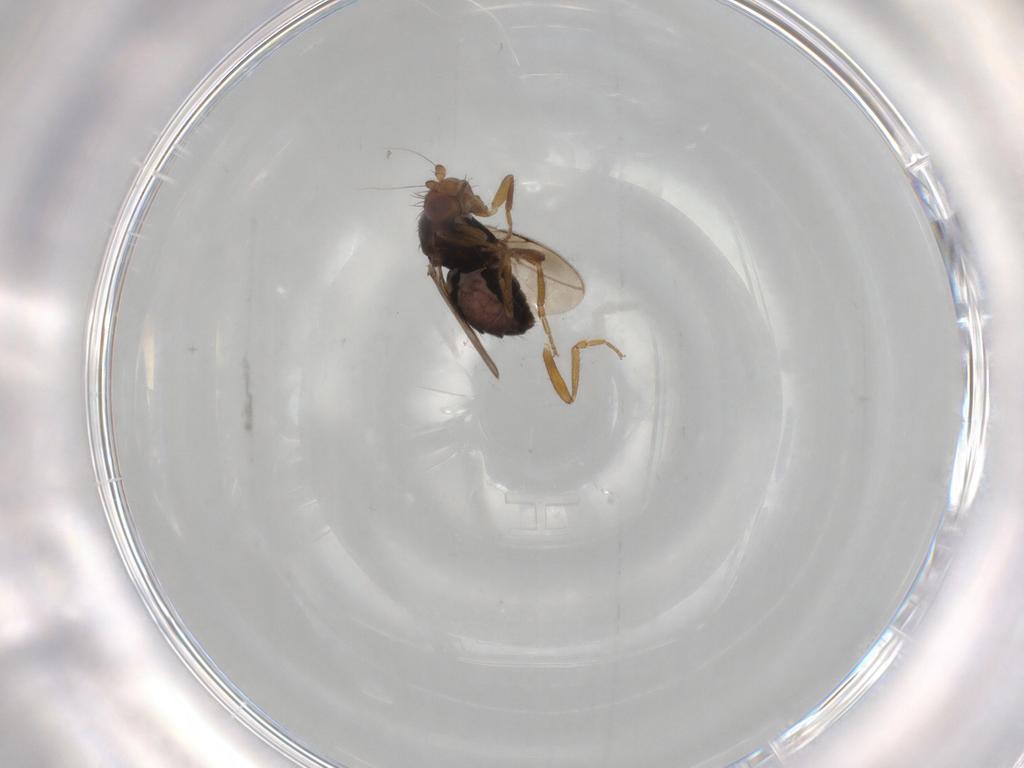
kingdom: Animalia
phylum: Arthropoda
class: Insecta
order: Diptera
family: Sphaeroceridae
